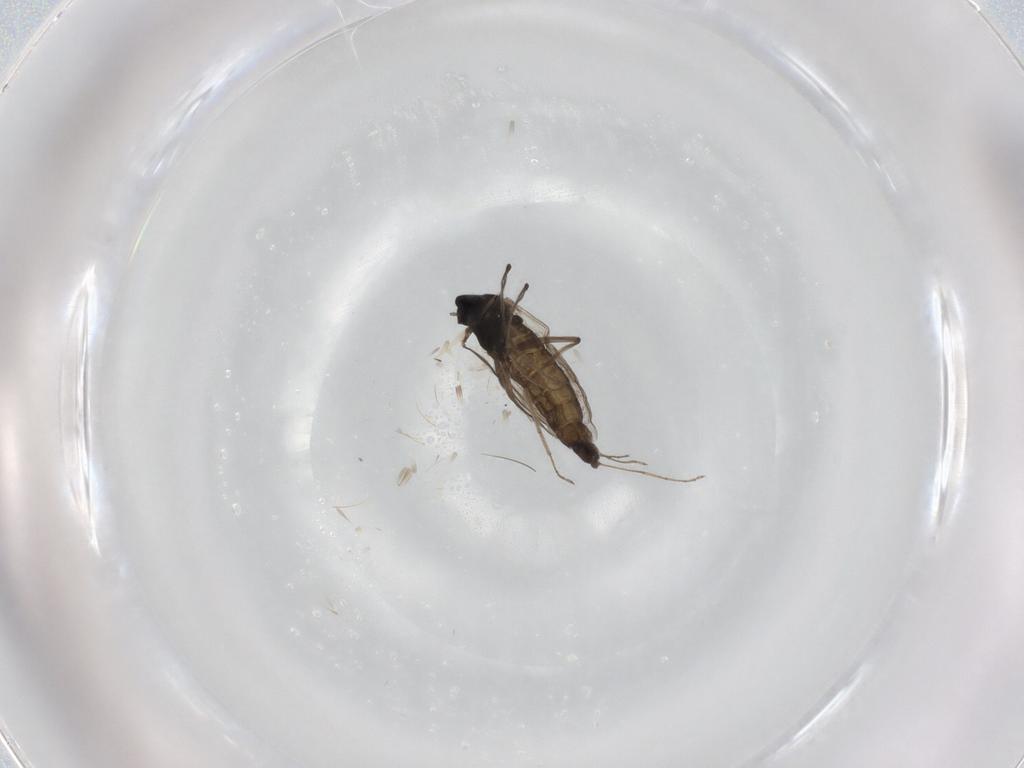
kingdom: Animalia
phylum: Arthropoda
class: Insecta
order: Diptera
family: Chironomidae
